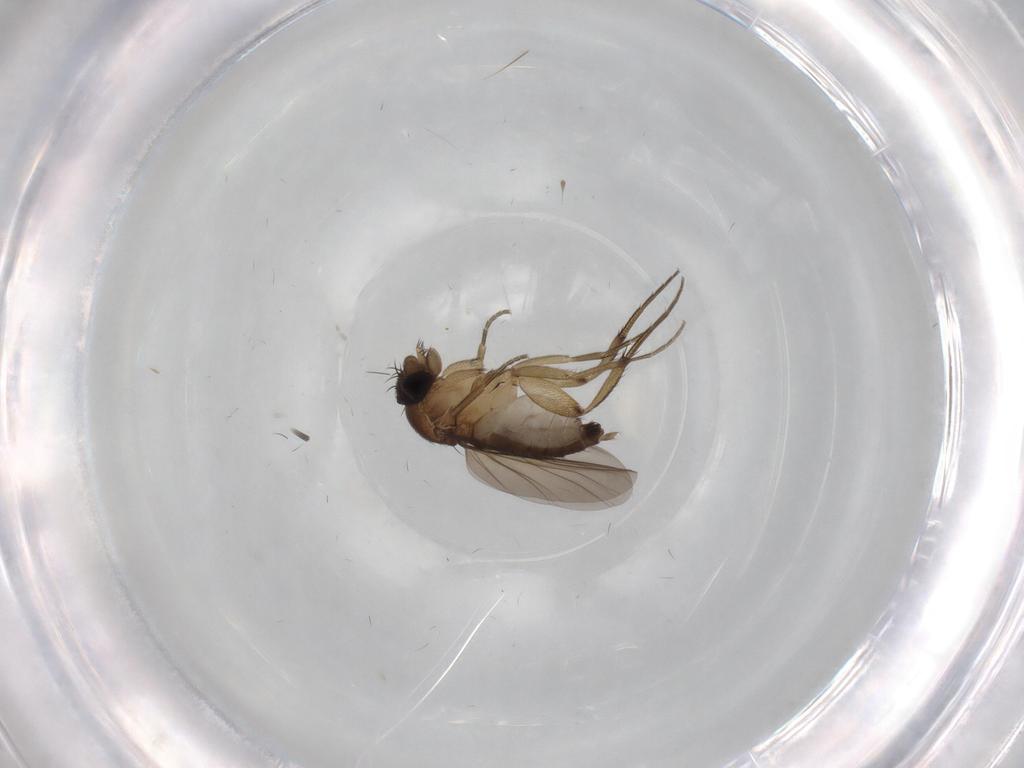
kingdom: Animalia
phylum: Arthropoda
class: Insecta
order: Diptera
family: Phoridae
